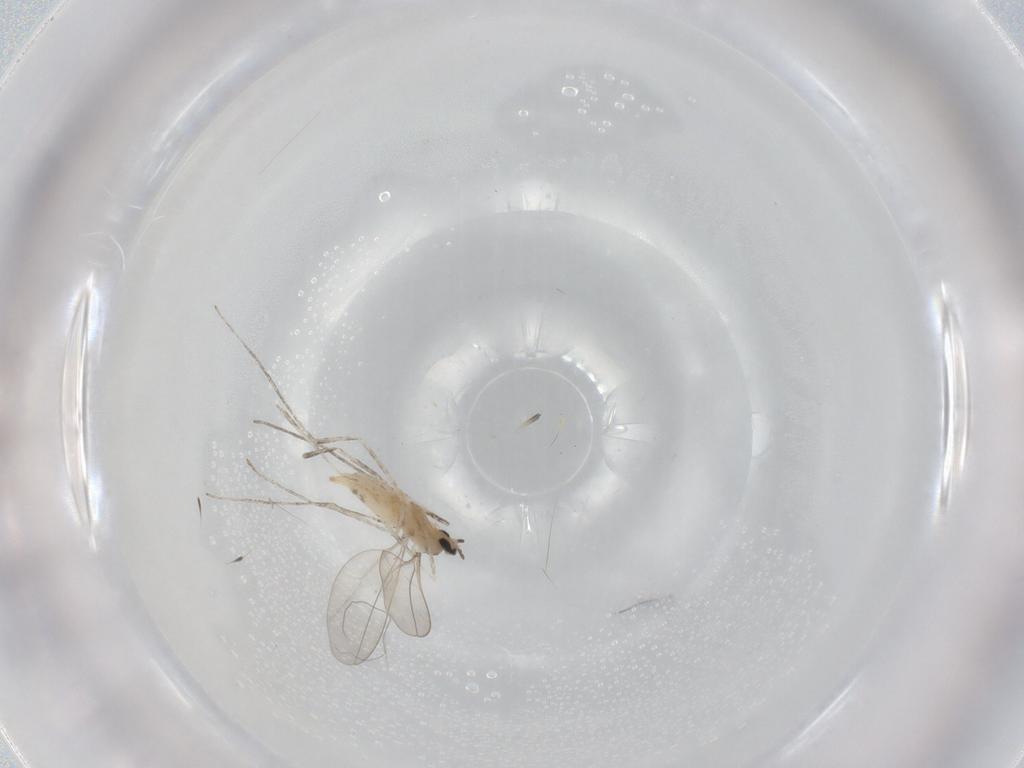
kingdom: Animalia
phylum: Arthropoda
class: Insecta
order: Diptera
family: Cecidomyiidae
